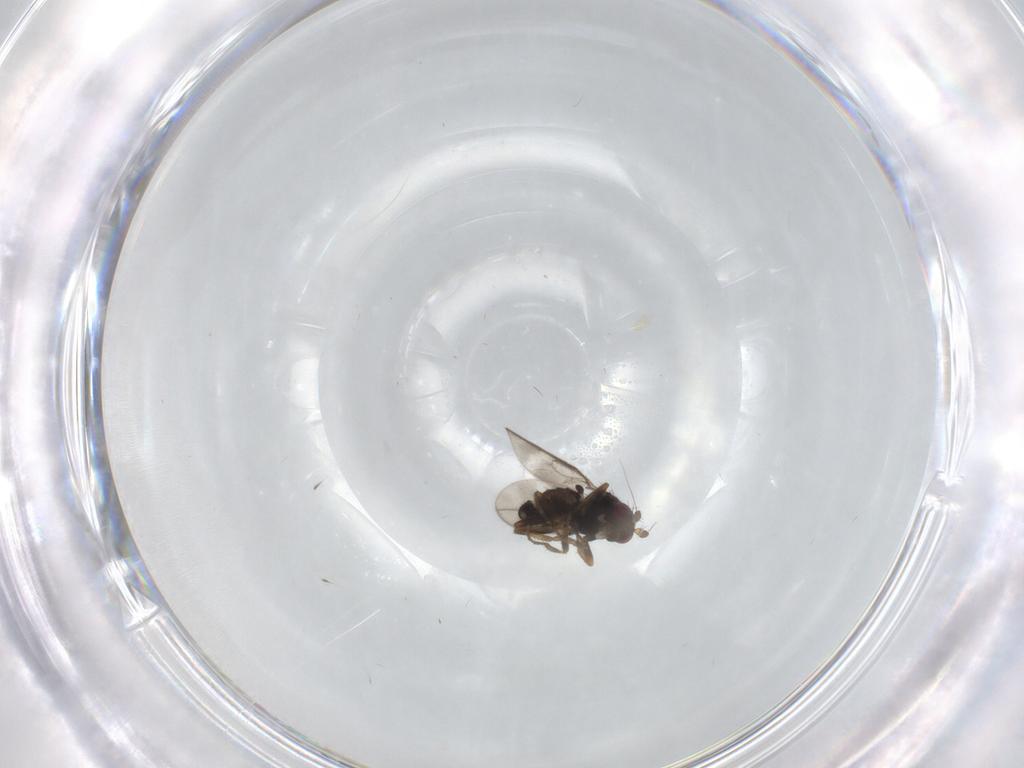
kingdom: Animalia
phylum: Arthropoda
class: Insecta
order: Diptera
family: Sphaeroceridae
